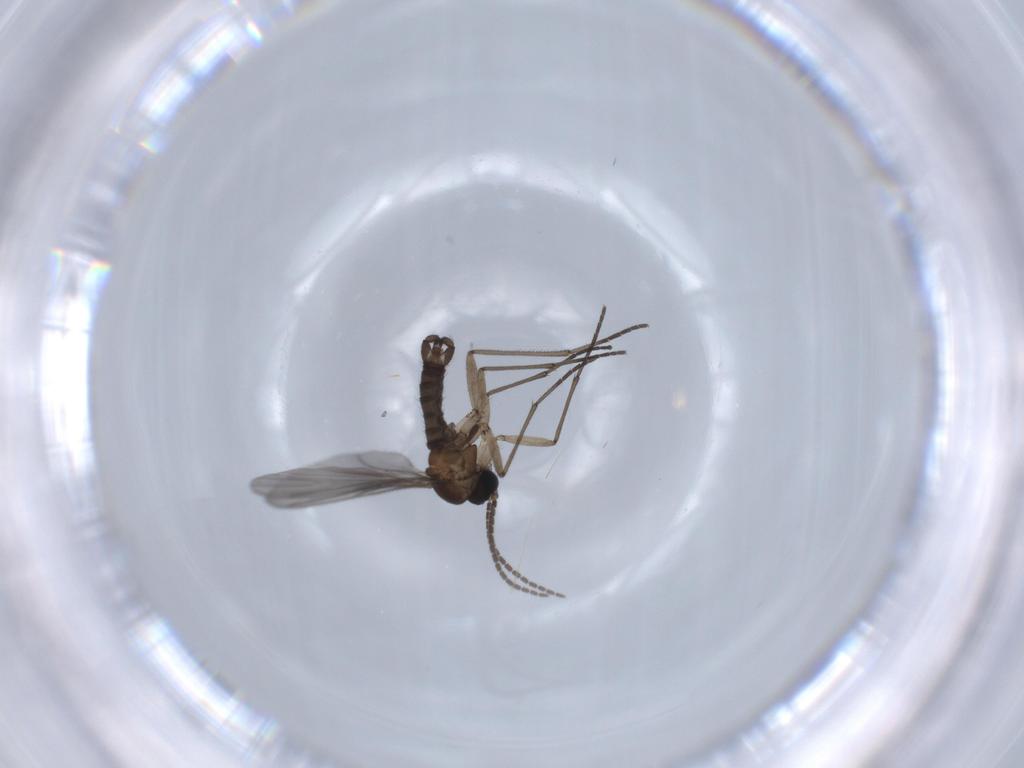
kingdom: Animalia
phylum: Arthropoda
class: Insecta
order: Diptera
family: Sciaridae
